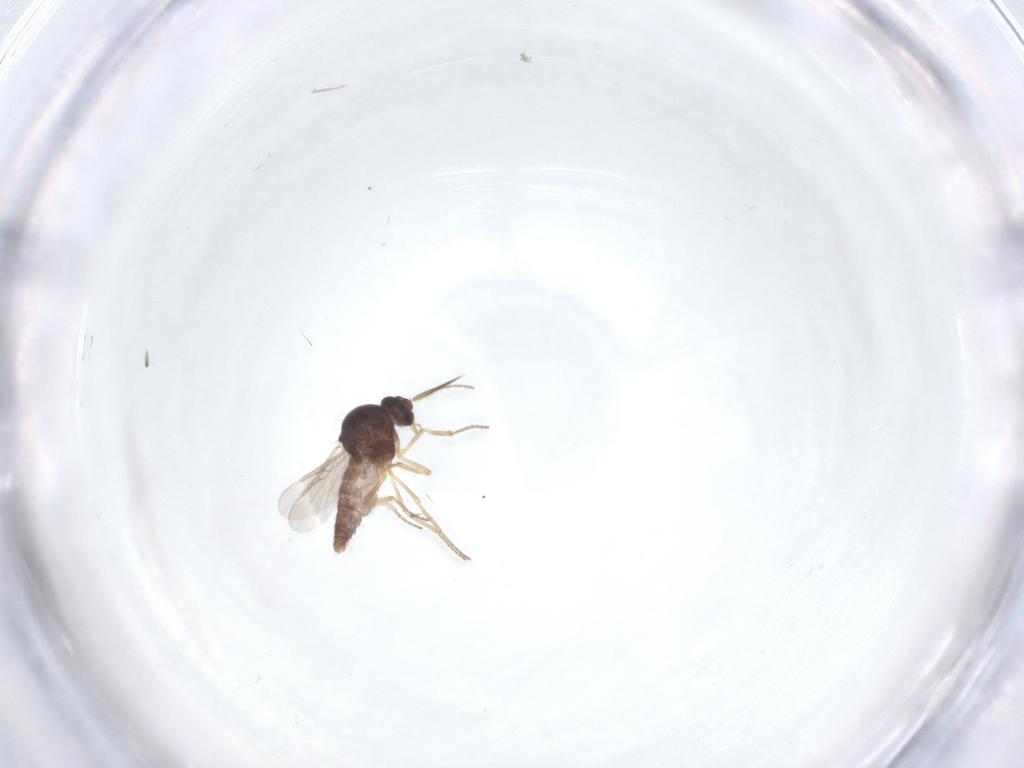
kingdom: Animalia
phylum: Arthropoda
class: Insecta
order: Diptera
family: Ceratopogonidae
